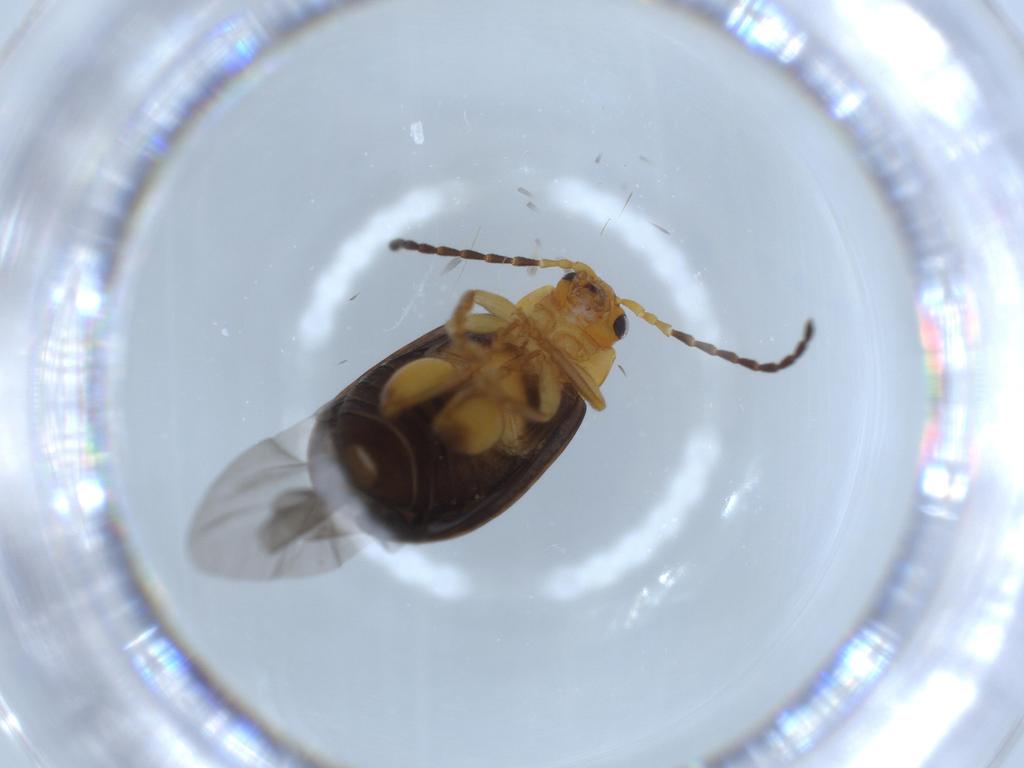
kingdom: Animalia
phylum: Arthropoda
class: Insecta
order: Coleoptera
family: Chrysomelidae
